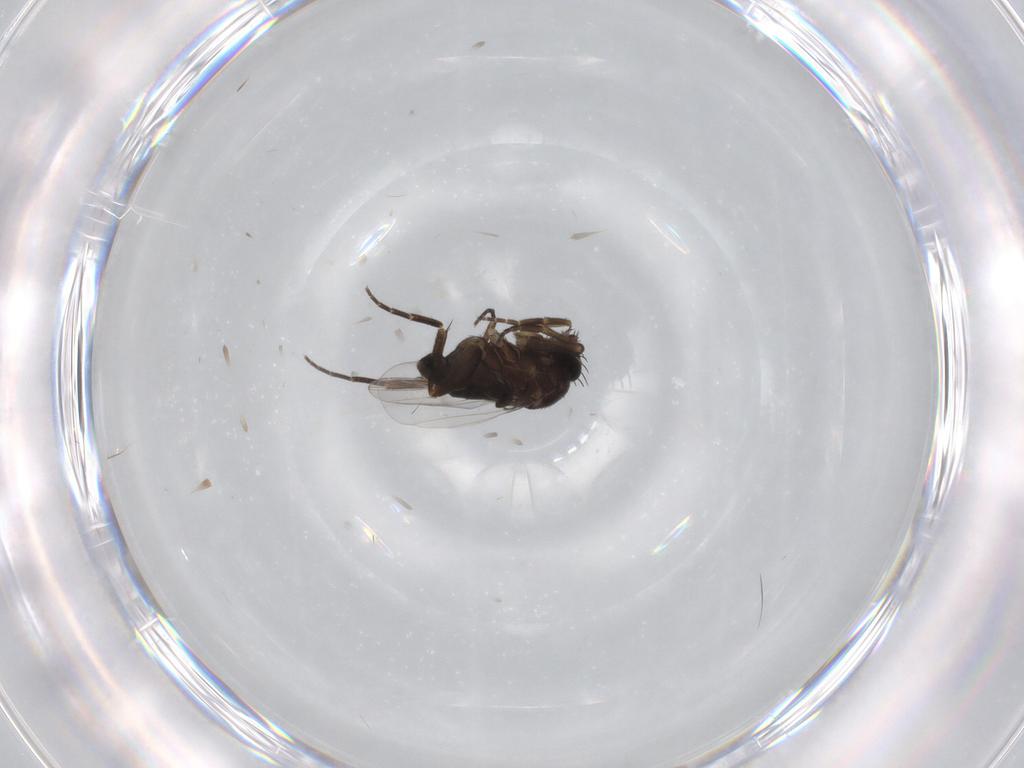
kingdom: Animalia
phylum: Arthropoda
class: Insecta
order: Diptera
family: Phoridae
